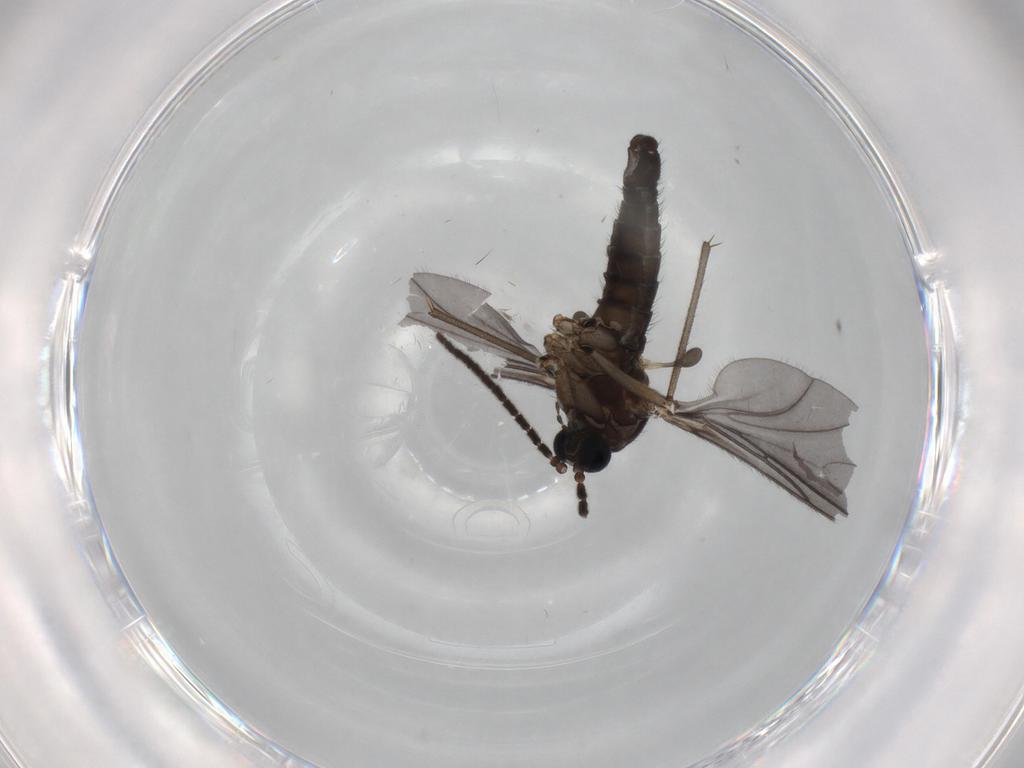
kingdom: Animalia
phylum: Arthropoda
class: Insecta
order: Diptera
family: Sciaridae
